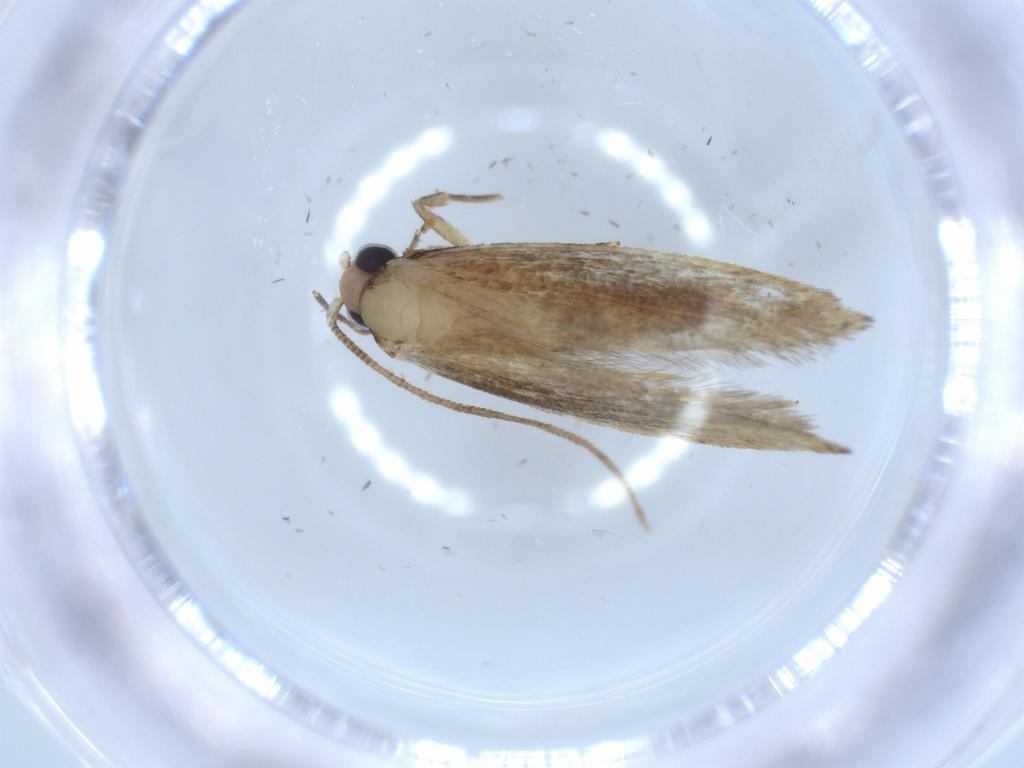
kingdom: Animalia
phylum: Arthropoda
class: Insecta
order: Lepidoptera
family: Tineidae
